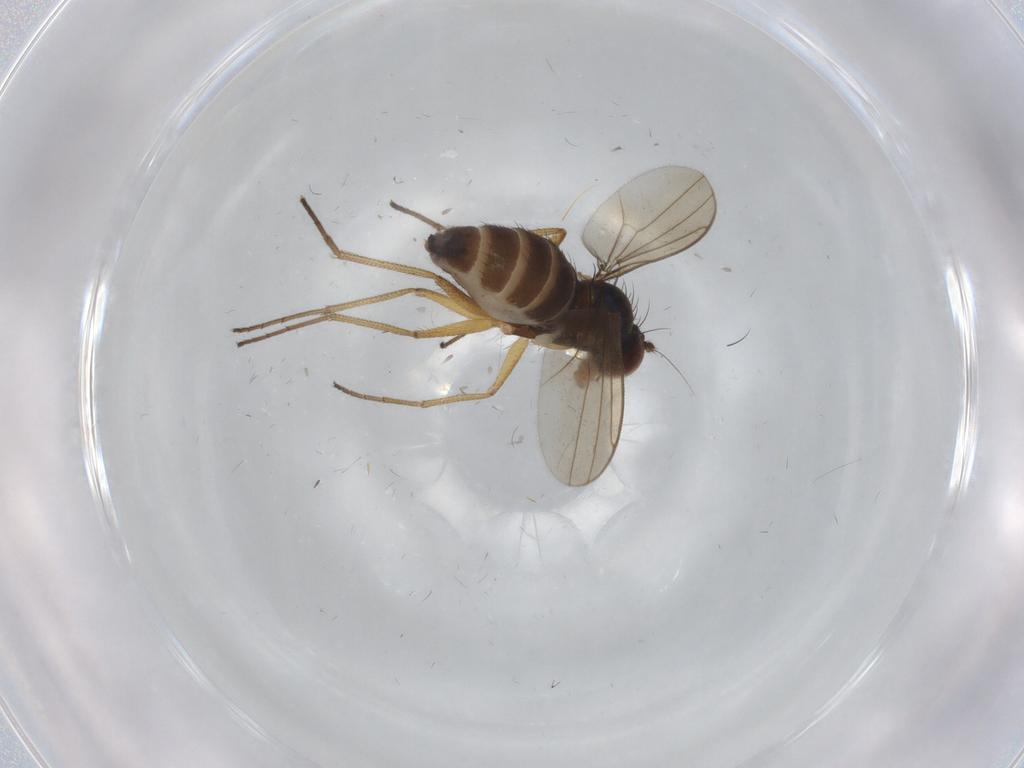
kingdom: Animalia
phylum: Arthropoda
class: Insecta
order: Diptera
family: Dolichopodidae
